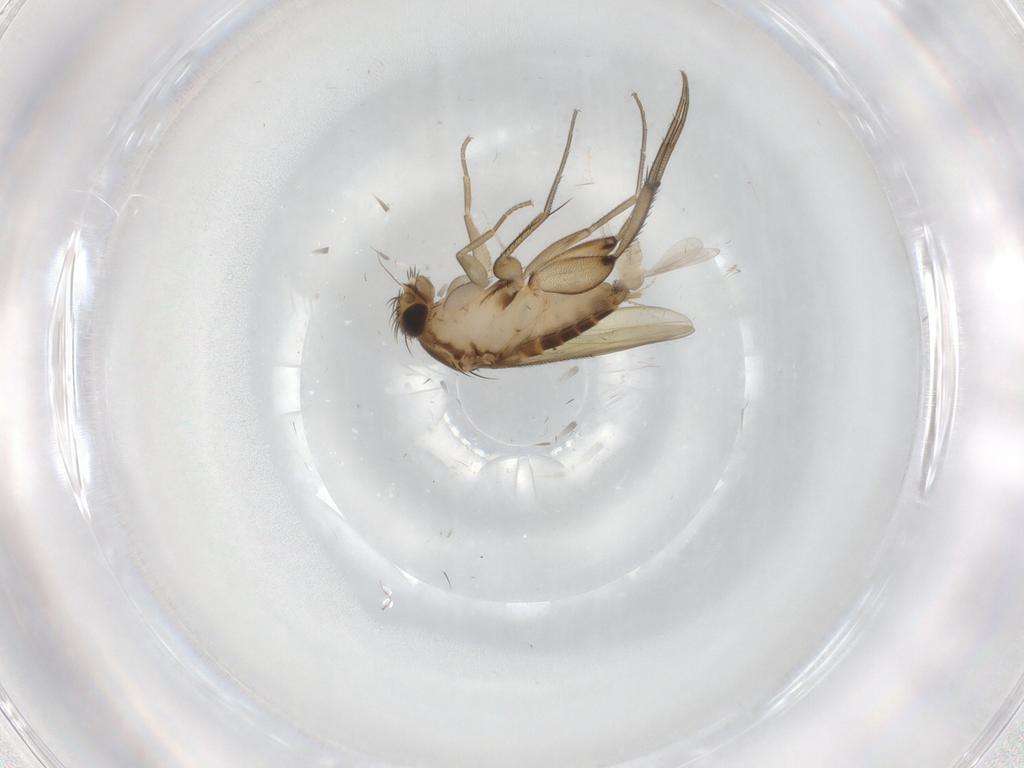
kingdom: Animalia
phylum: Arthropoda
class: Insecta
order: Diptera
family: Phoridae
